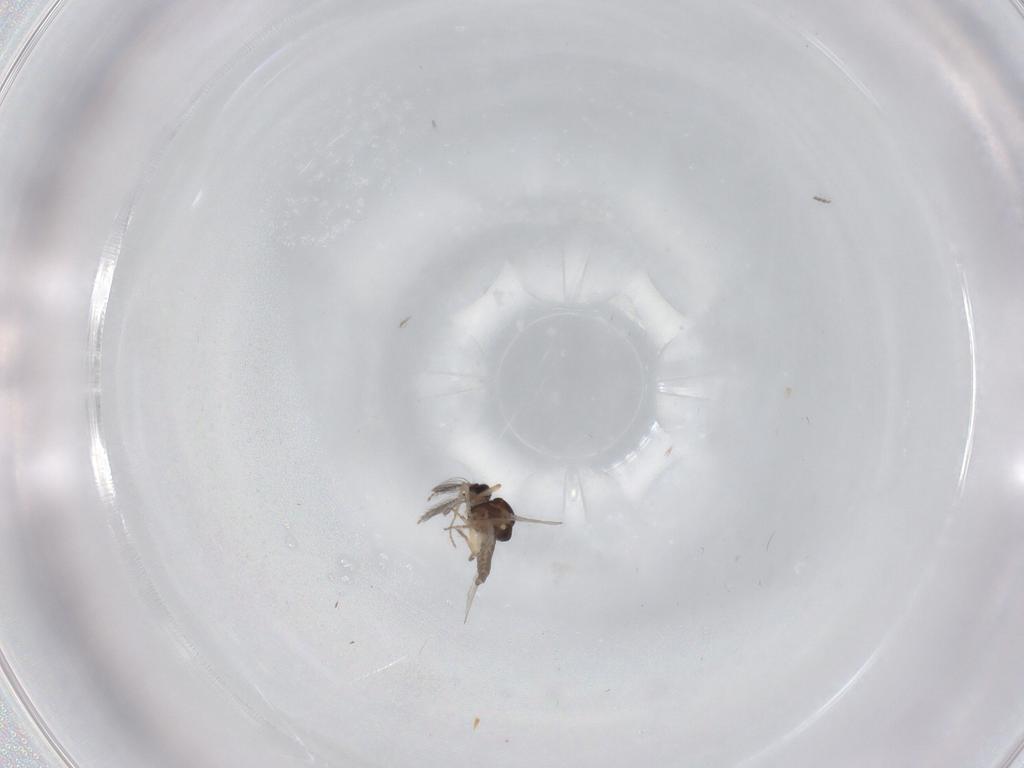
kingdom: Animalia
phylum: Arthropoda
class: Insecta
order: Diptera
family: Ceratopogonidae
